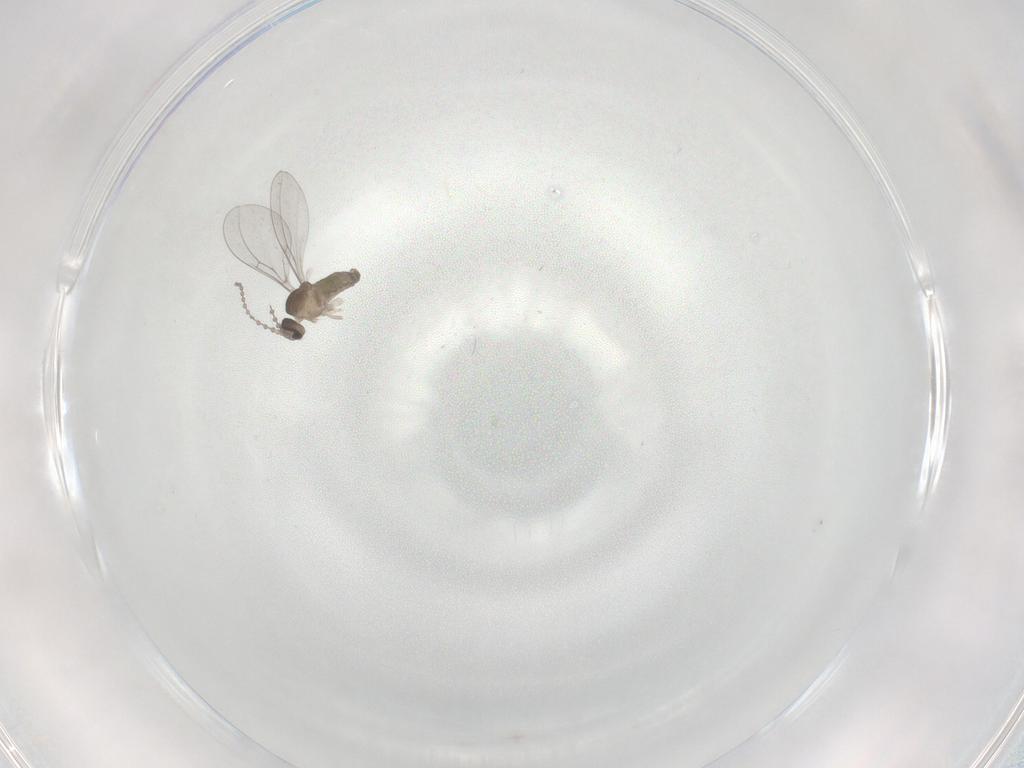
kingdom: Animalia
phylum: Arthropoda
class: Insecta
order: Diptera
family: Cecidomyiidae
